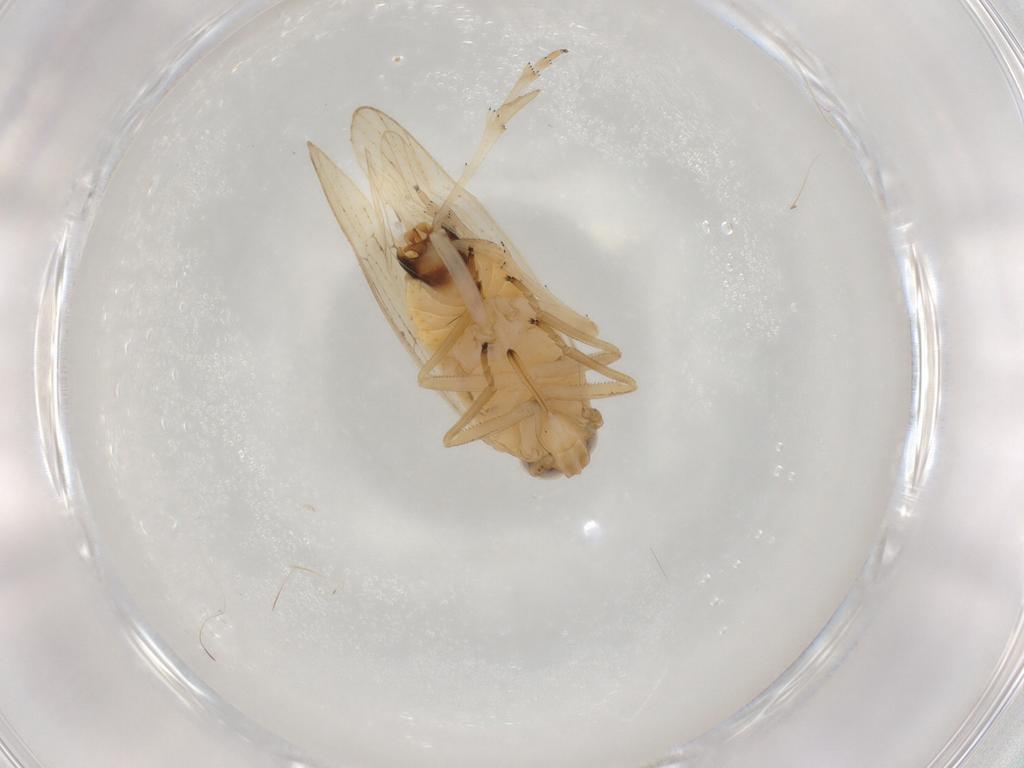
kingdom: Animalia
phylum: Arthropoda
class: Insecta
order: Hemiptera
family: Delphacidae
